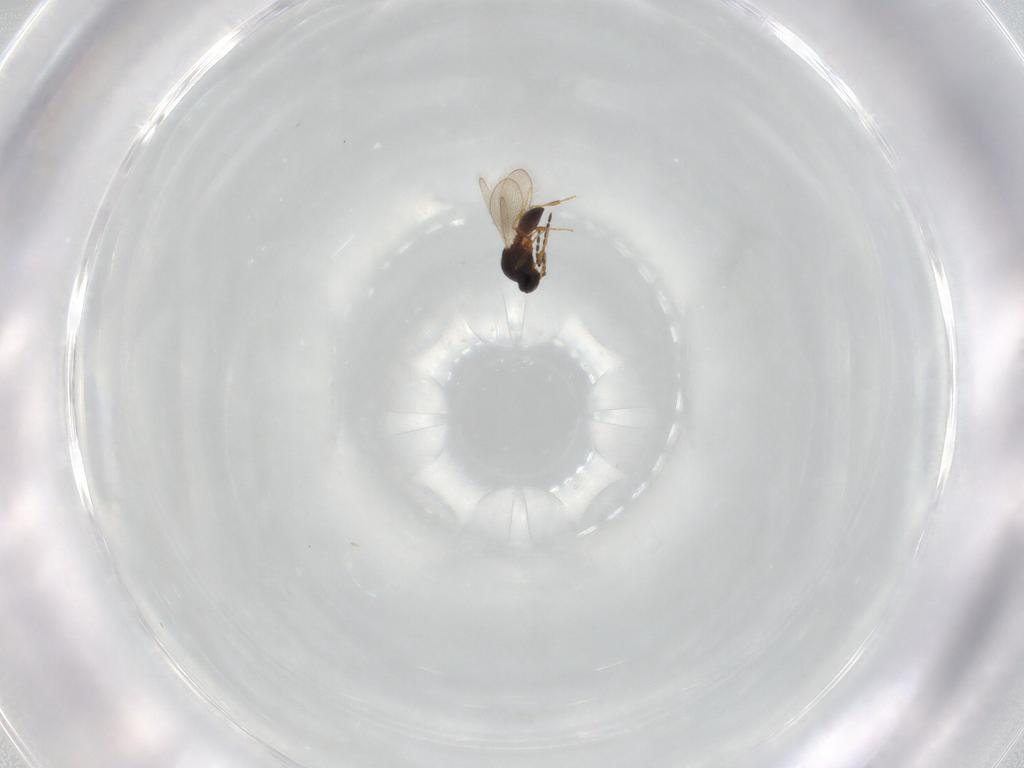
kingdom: Animalia
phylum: Arthropoda
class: Insecta
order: Hymenoptera
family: Platygastridae
